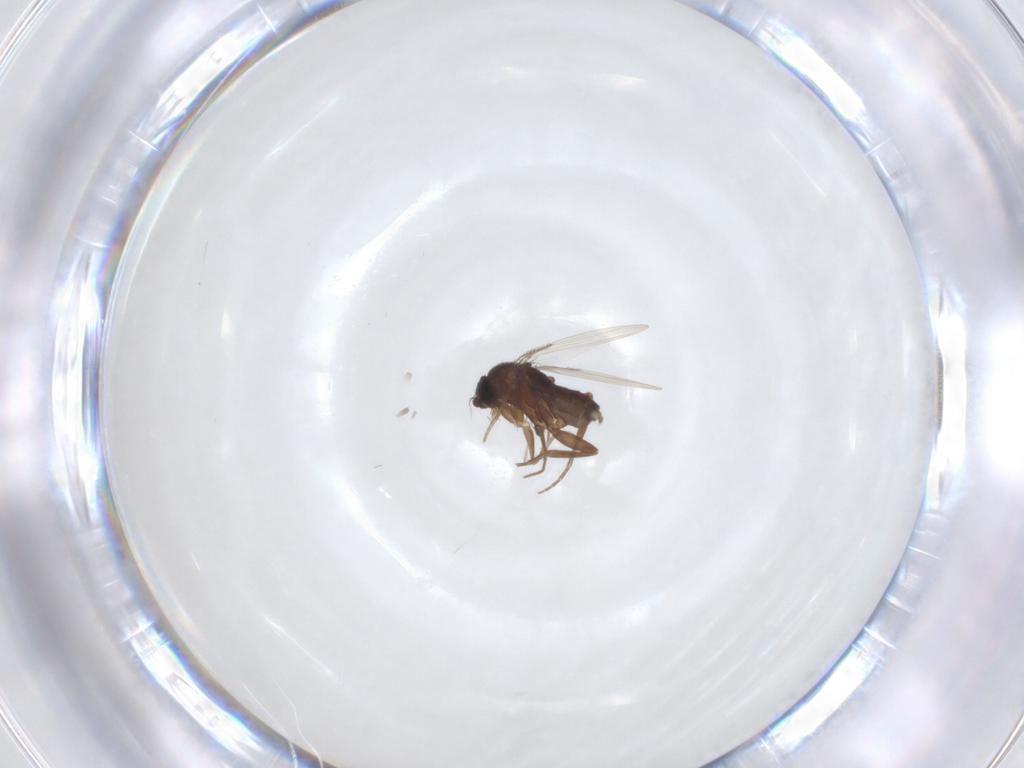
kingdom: Animalia
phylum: Arthropoda
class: Insecta
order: Diptera
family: Phoridae
